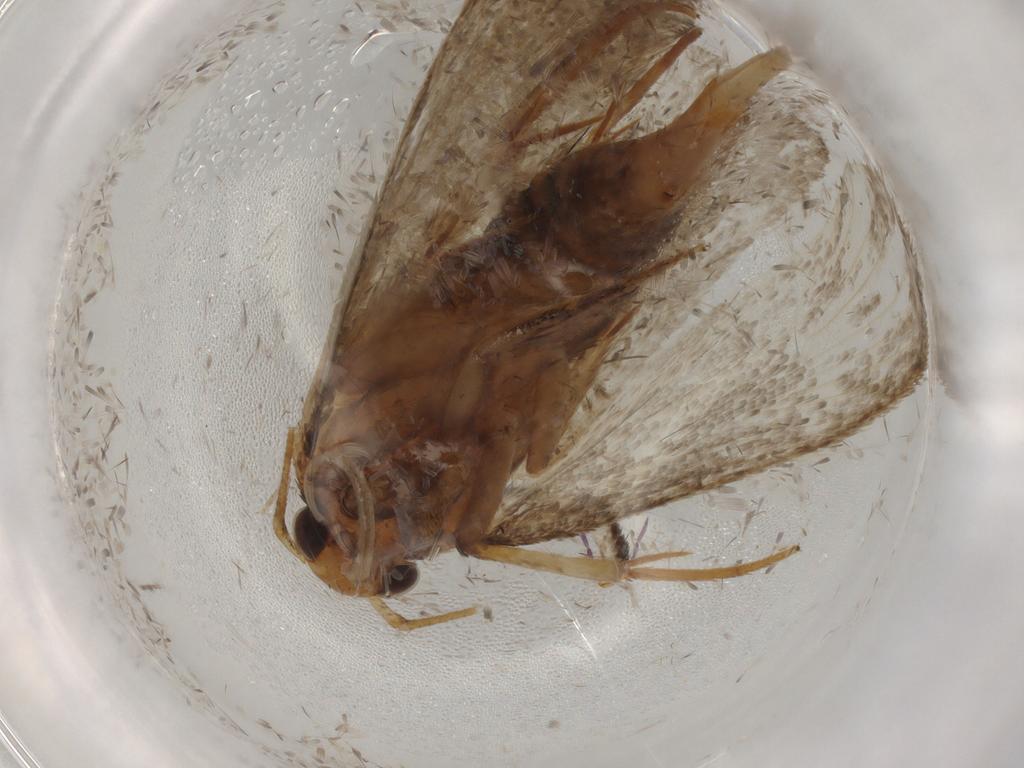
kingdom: Animalia
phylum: Arthropoda
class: Insecta
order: Lepidoptera
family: Oecophoridae
